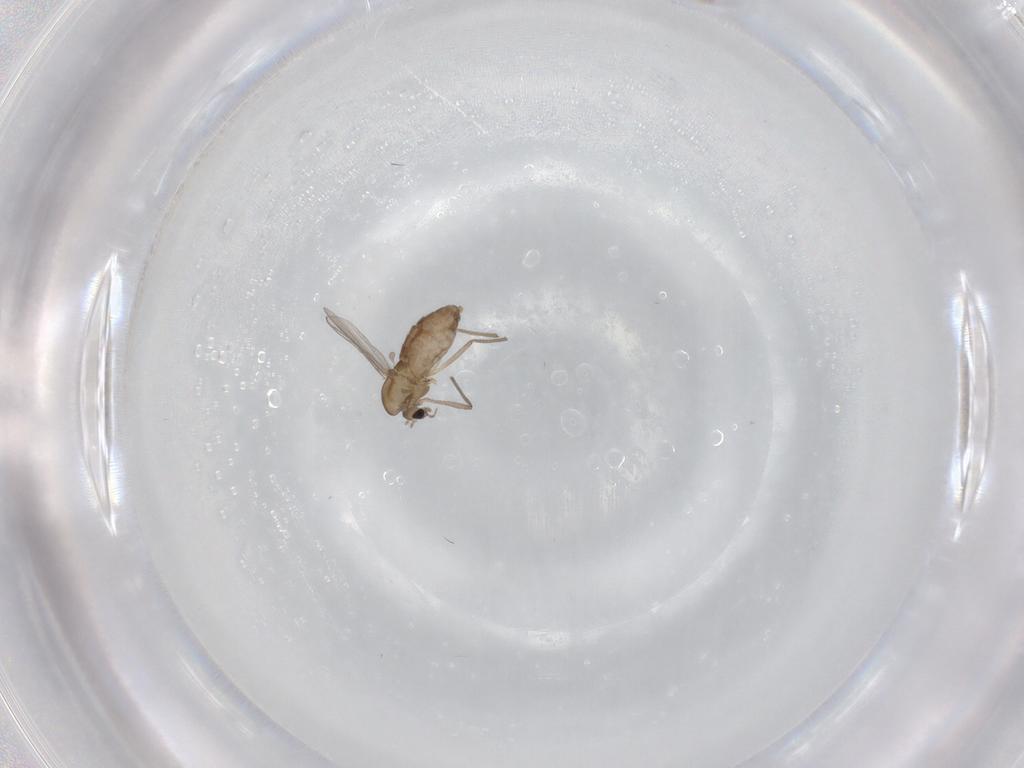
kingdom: Animalia
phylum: Arthropoda
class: Insecta
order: Diptera
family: Chironomidae
